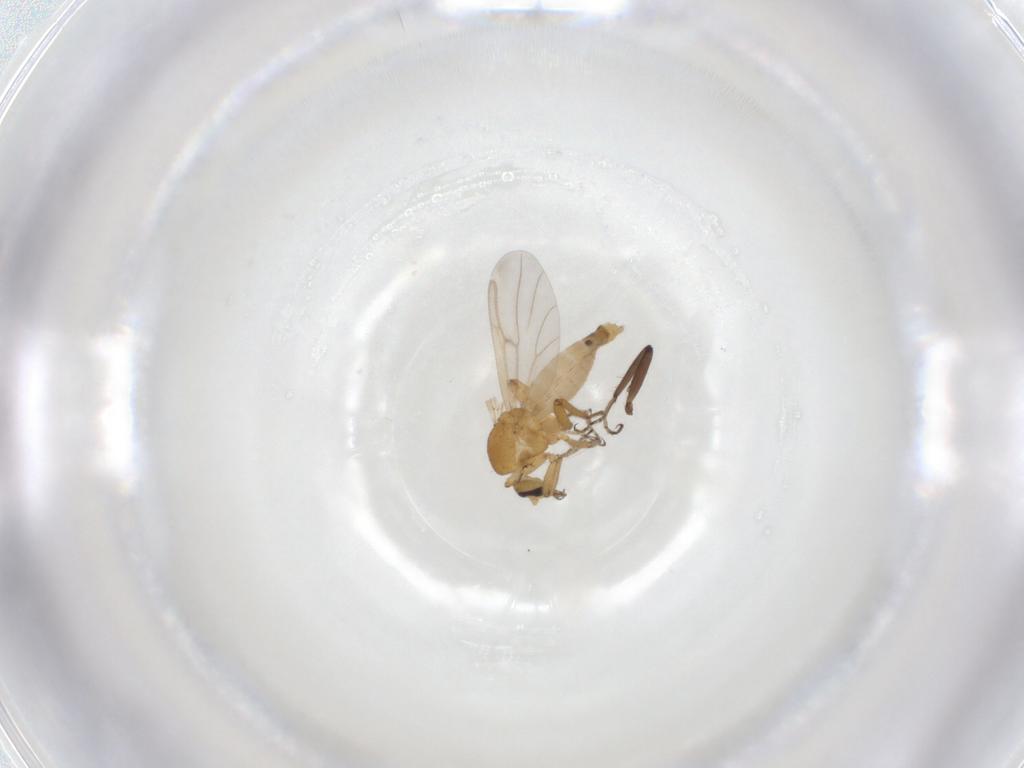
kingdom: Animalia
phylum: Arthropoda
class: Insecta
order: Diptera
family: Ceratopogonidae
